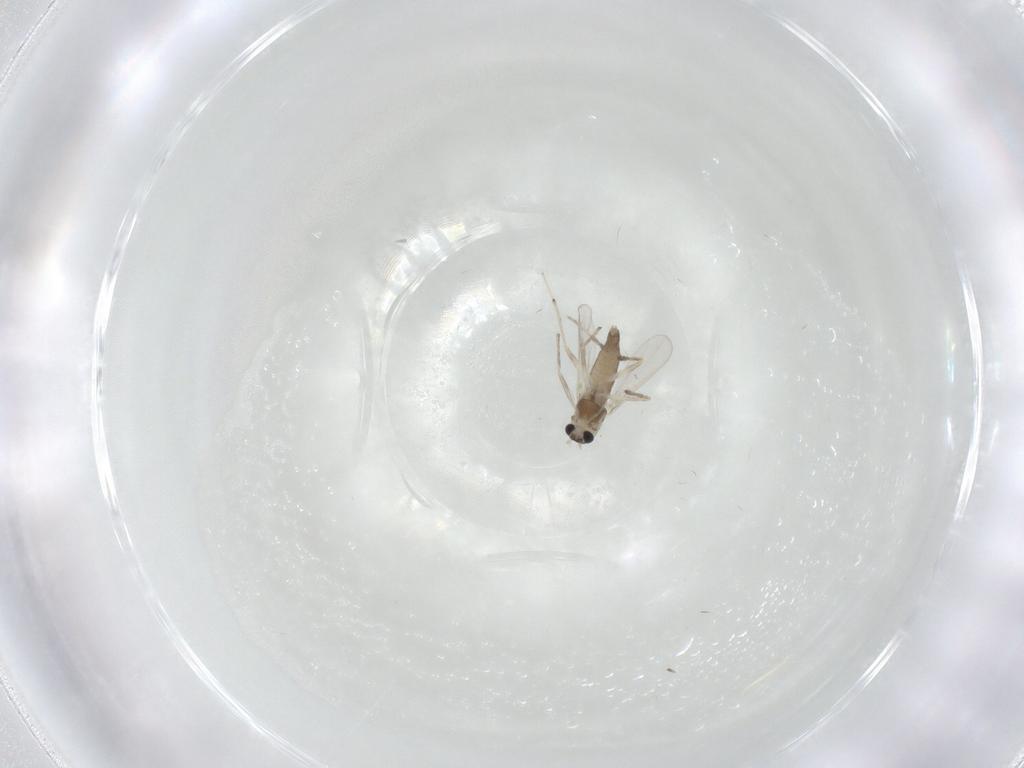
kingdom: Animalia
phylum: Arthropoda
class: Insecta
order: Diptera
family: Chironomidae
